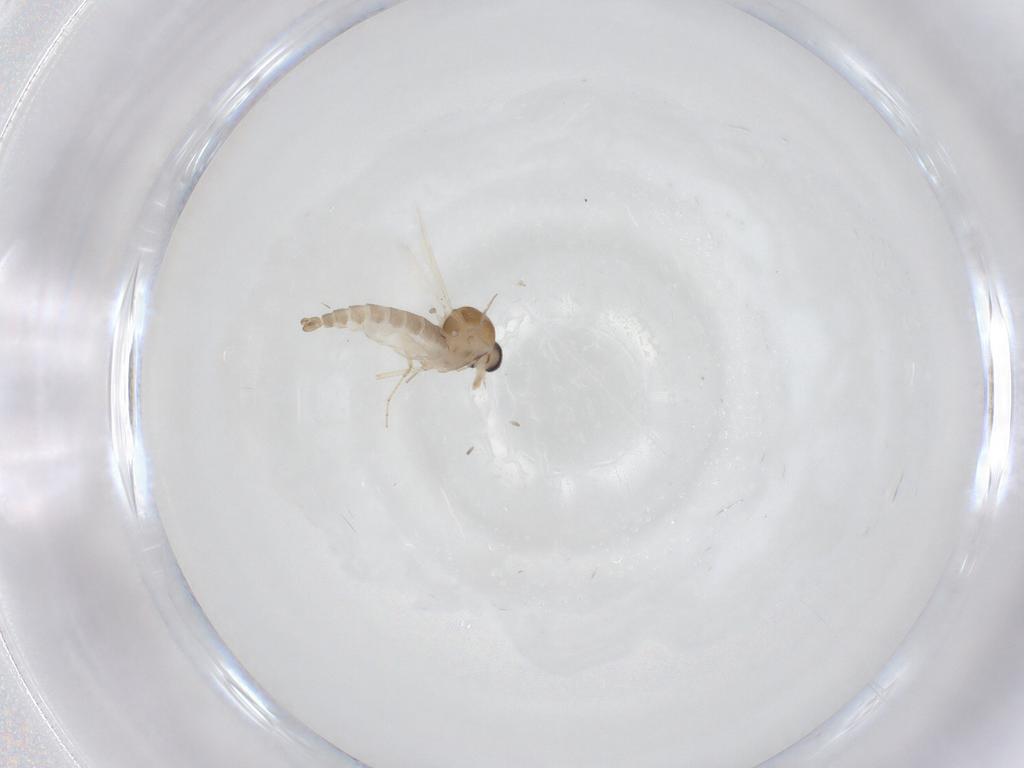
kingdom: Animalia
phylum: Arthropoda
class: Insecta
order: Diptera
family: Ceratopogonidae
